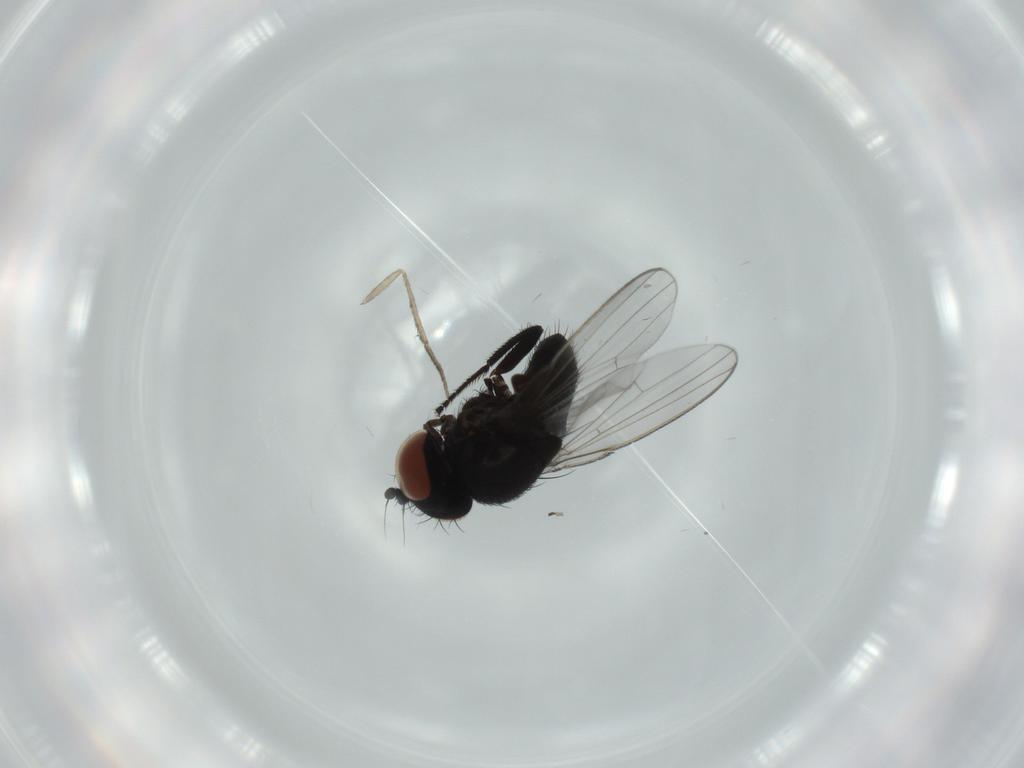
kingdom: Animalia
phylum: Arthropoda
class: Insecta
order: Diptera
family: Milichiidae
